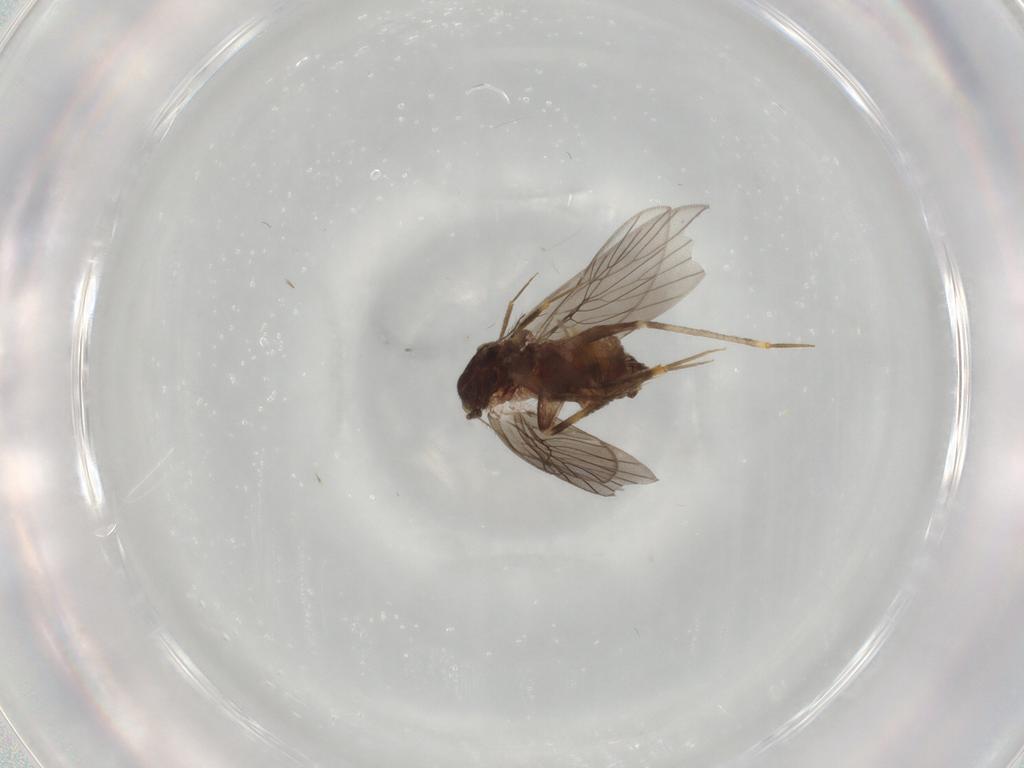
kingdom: Animalia
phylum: Arthropoda
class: Insecta
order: Psocodea
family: Lepidopsocidae
